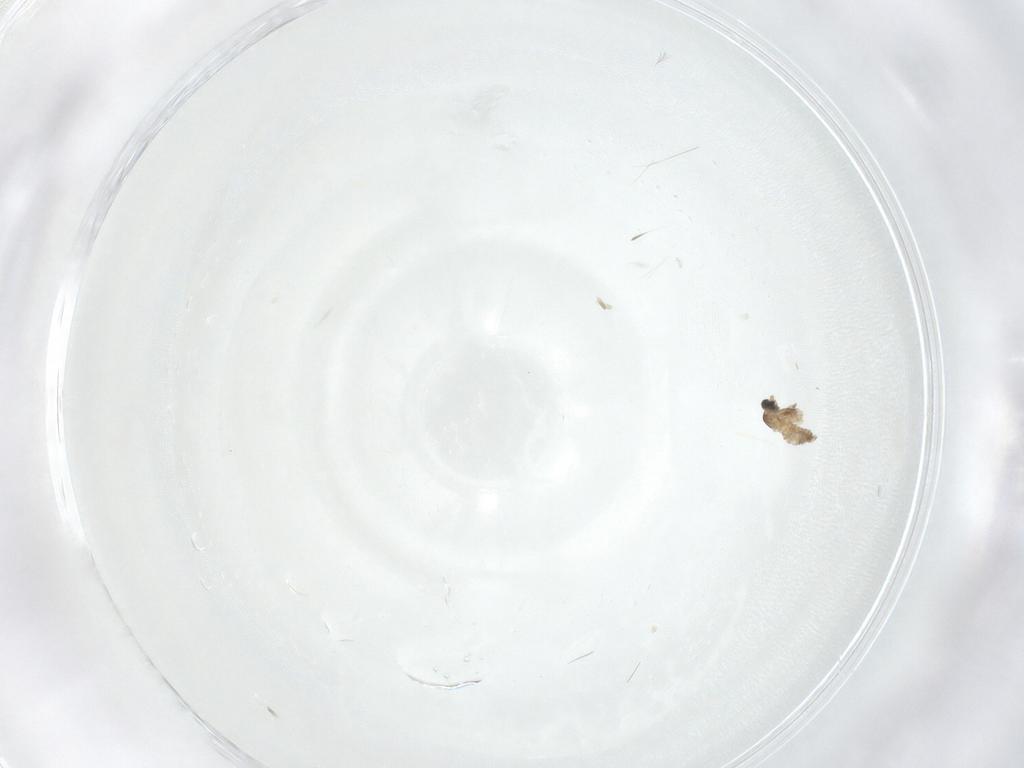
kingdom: Animalia
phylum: Arthropoda
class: Insecta
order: Diptera
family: Cecidomyiidae
